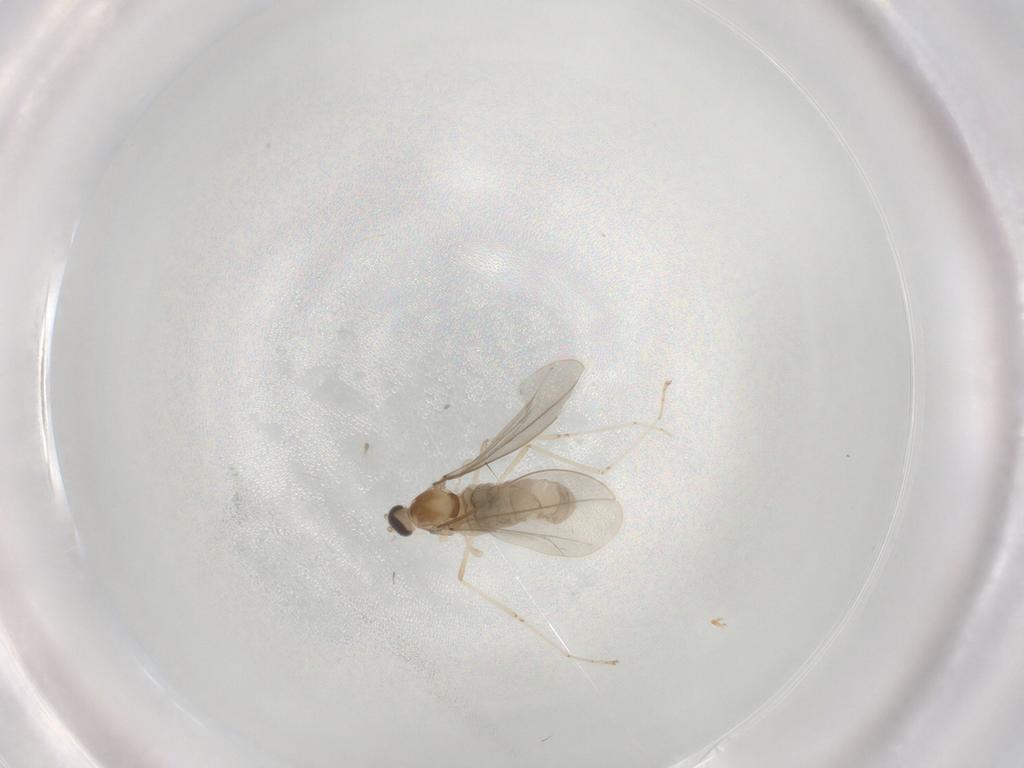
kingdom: Animalia
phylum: Arthropoda
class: Insecta
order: Diptera
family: Cecidomyiidae
